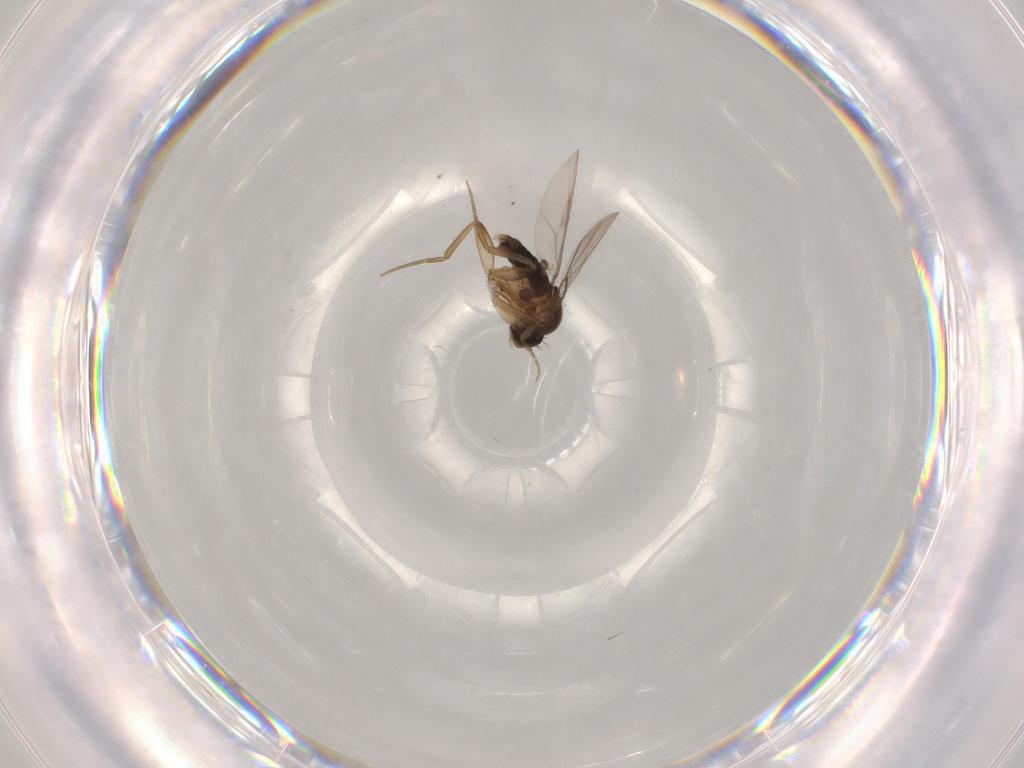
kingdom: Animalia
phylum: Arthropoda
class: Insecta
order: Diptera
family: Phoridae
